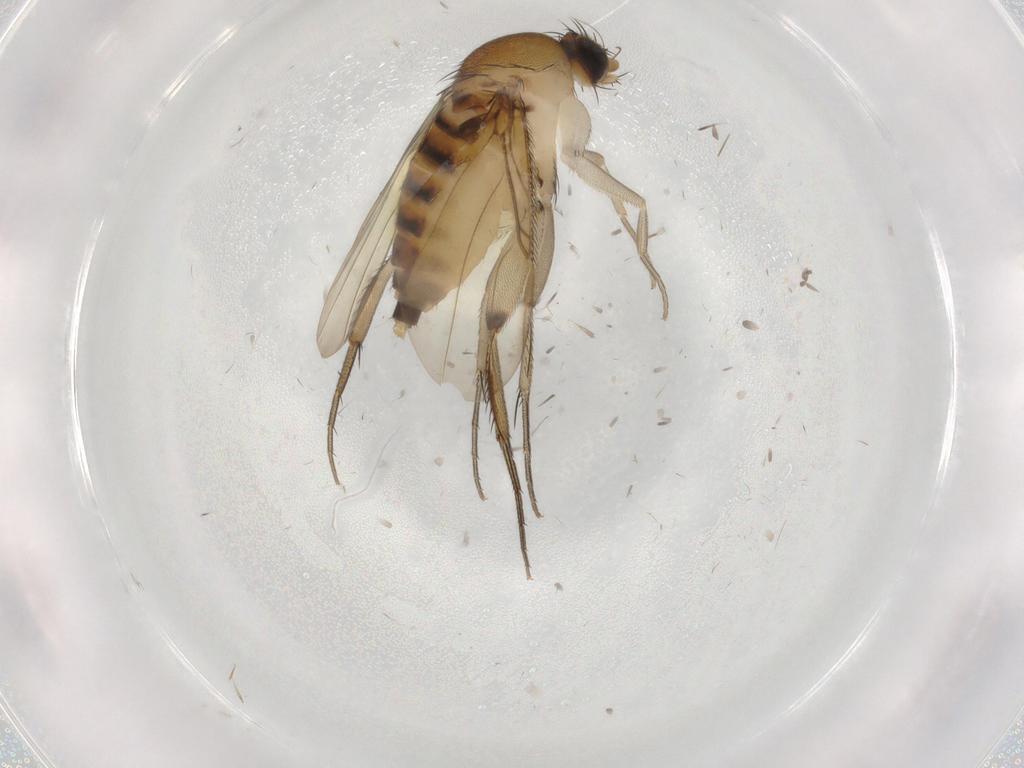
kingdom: Animalia
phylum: Arthropoda
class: Insecta
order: Diptera
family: Phoridae
